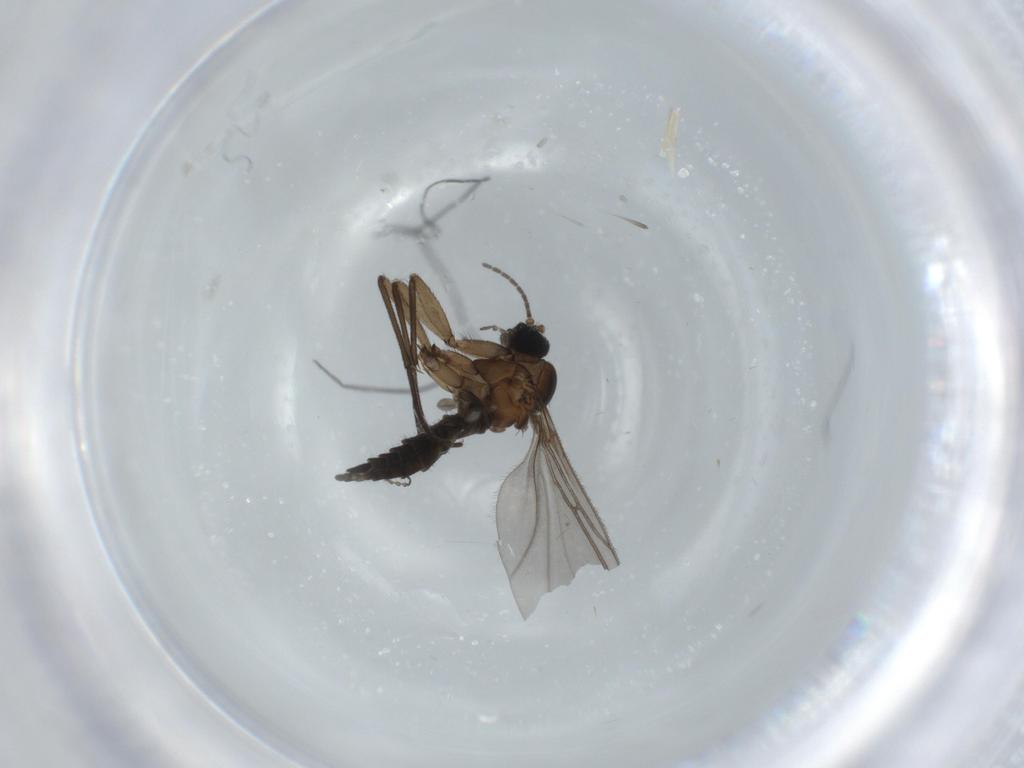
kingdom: Animalia
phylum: Arthropoda
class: Insecta
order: Diptera
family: Sciaridae
